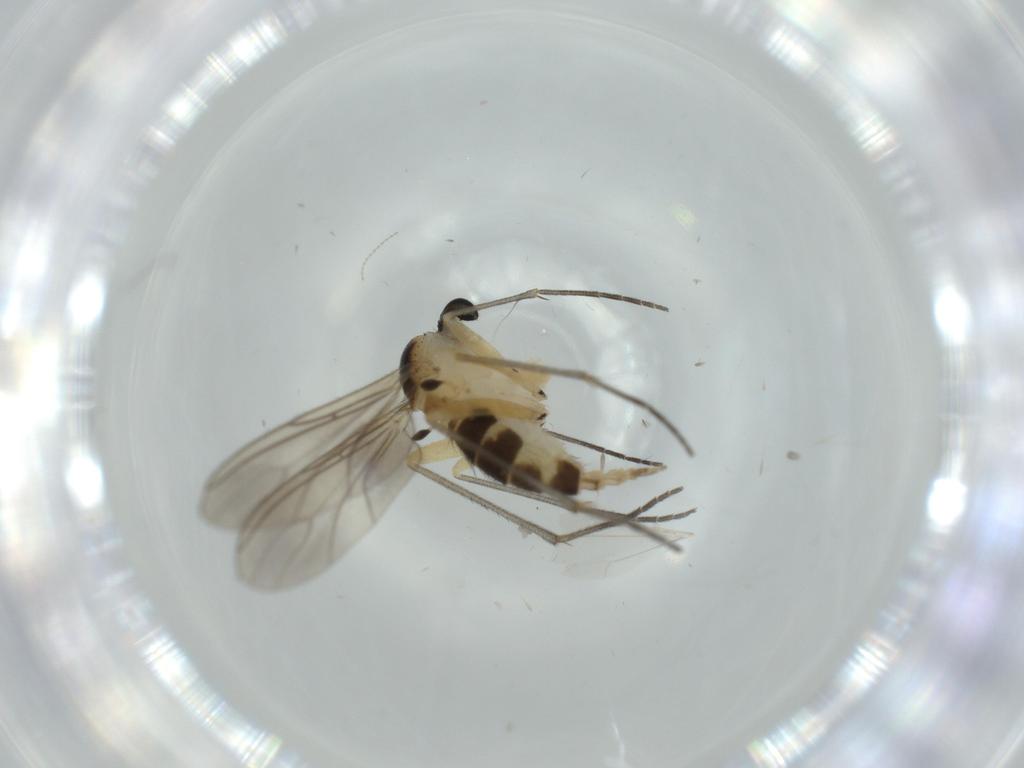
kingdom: Animalia
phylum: Arthropoda
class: Insecta
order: Diptera
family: Sciaridae
